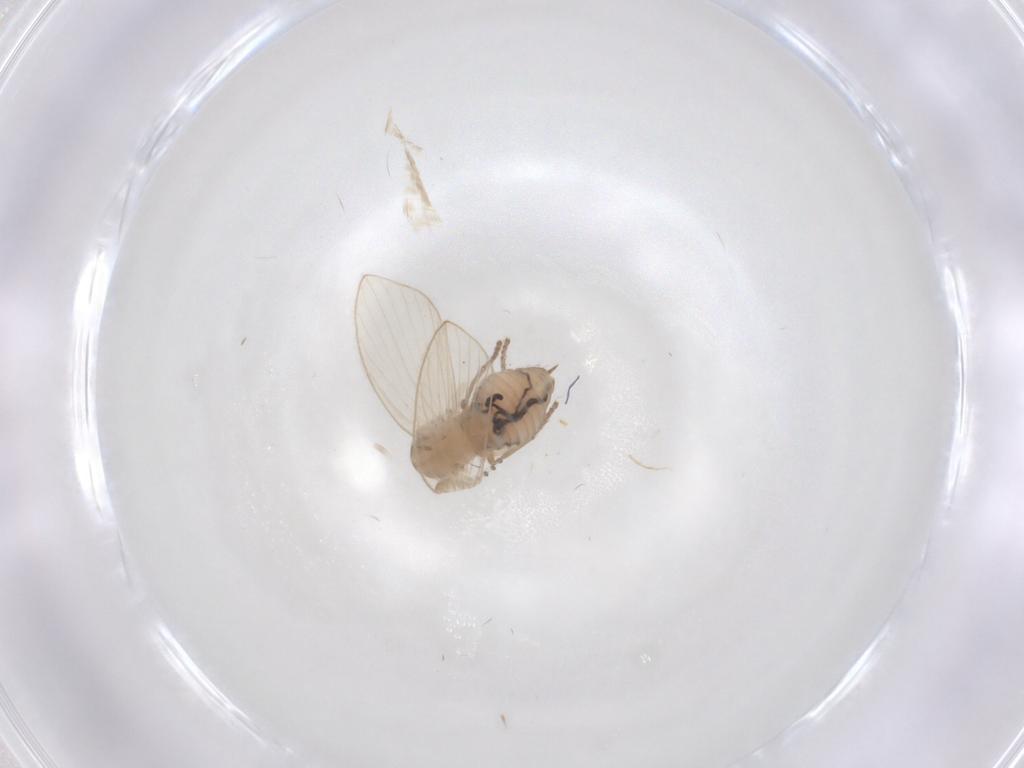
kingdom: Animalia
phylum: Arthropoda
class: Insecta
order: Diptera
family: Psychodidae
